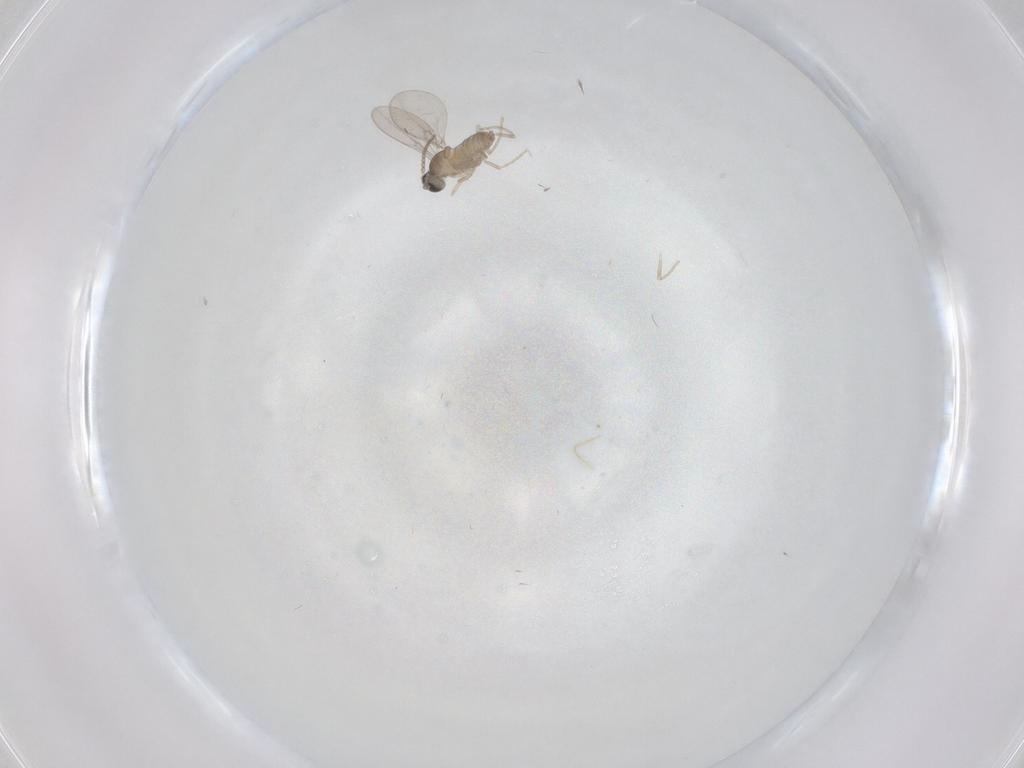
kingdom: Animalia
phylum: Arthropoda
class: Insecta
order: Diptera
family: Cecidomyiidae
